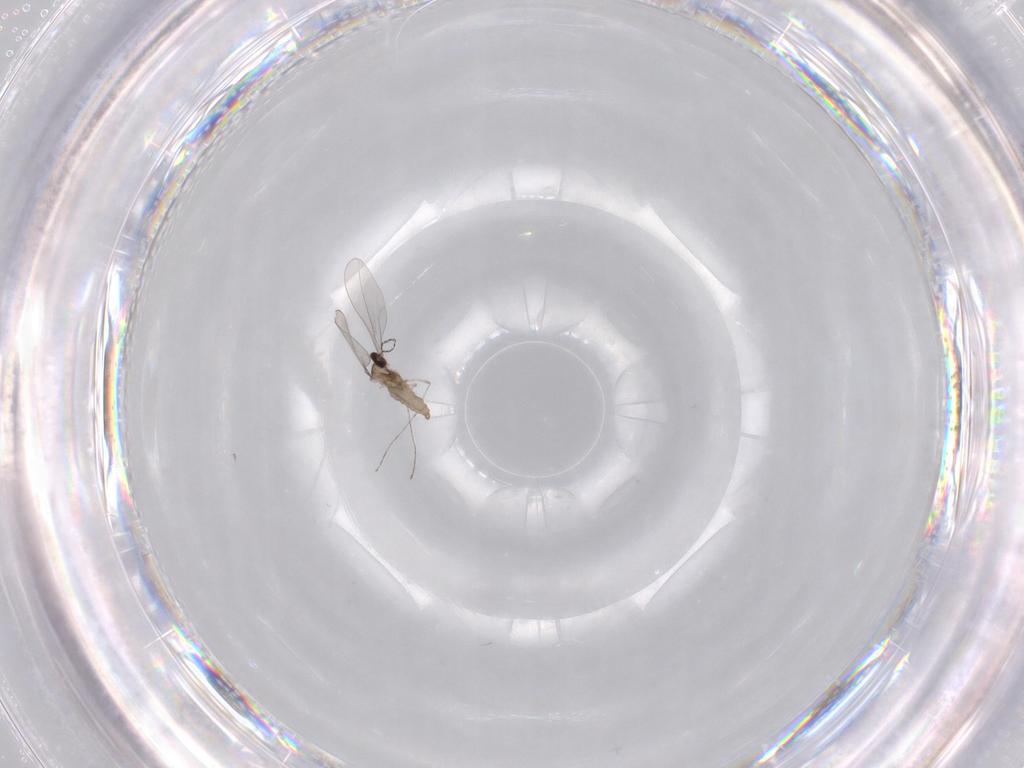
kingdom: Animalia
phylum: Arthropoda
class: Insecta
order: Diptera
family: Cecidomyiidae
